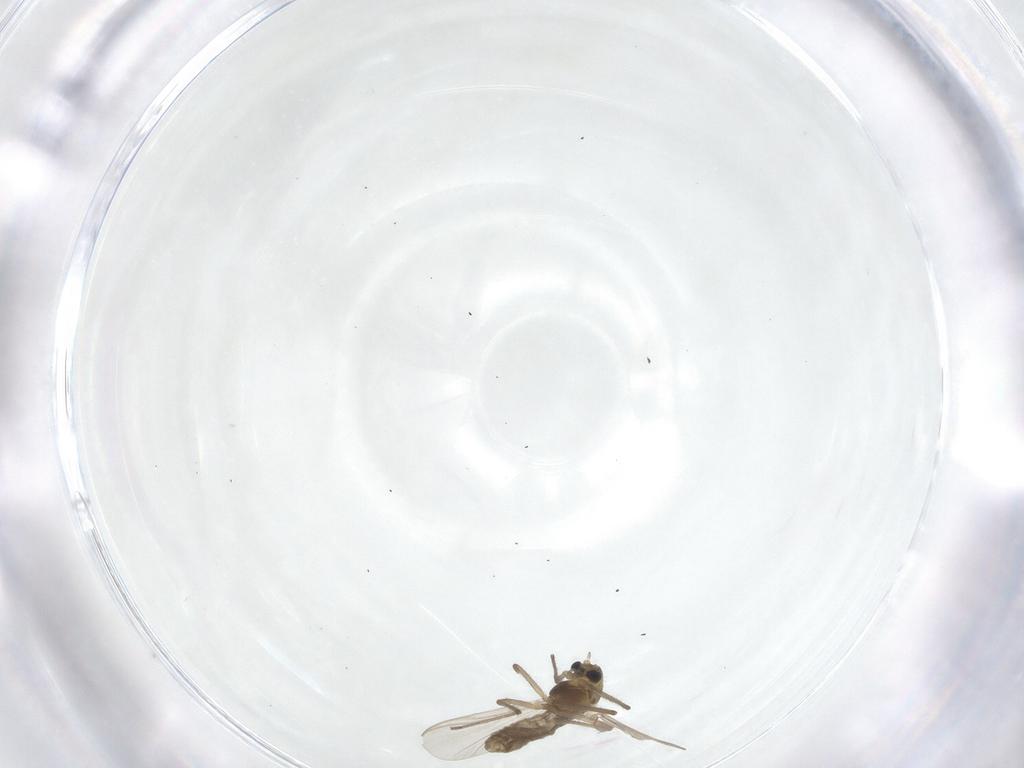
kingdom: Animalia
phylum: Arthropoda
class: Insecta
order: Diptera
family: Chironomidae
